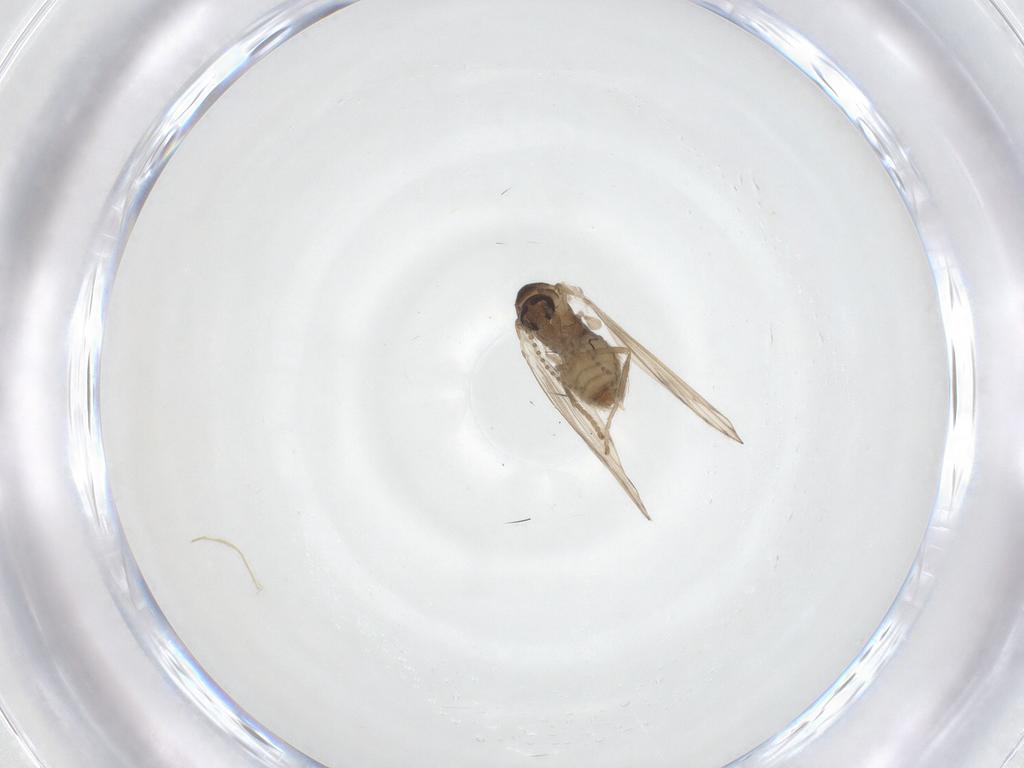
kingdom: Animalia
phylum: Arthropoda
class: Insecta
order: Diptera
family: Psychodidae
